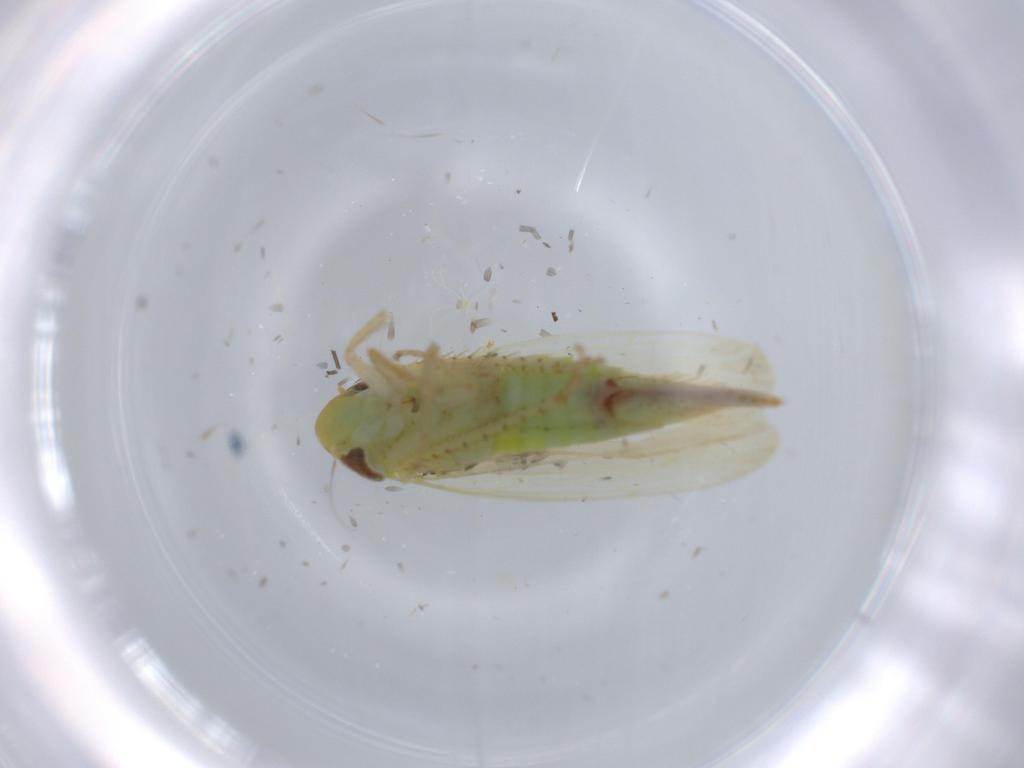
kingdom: Animalia
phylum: Arthropoda
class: Insecta
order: Hemiptera
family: Cicadellidae
